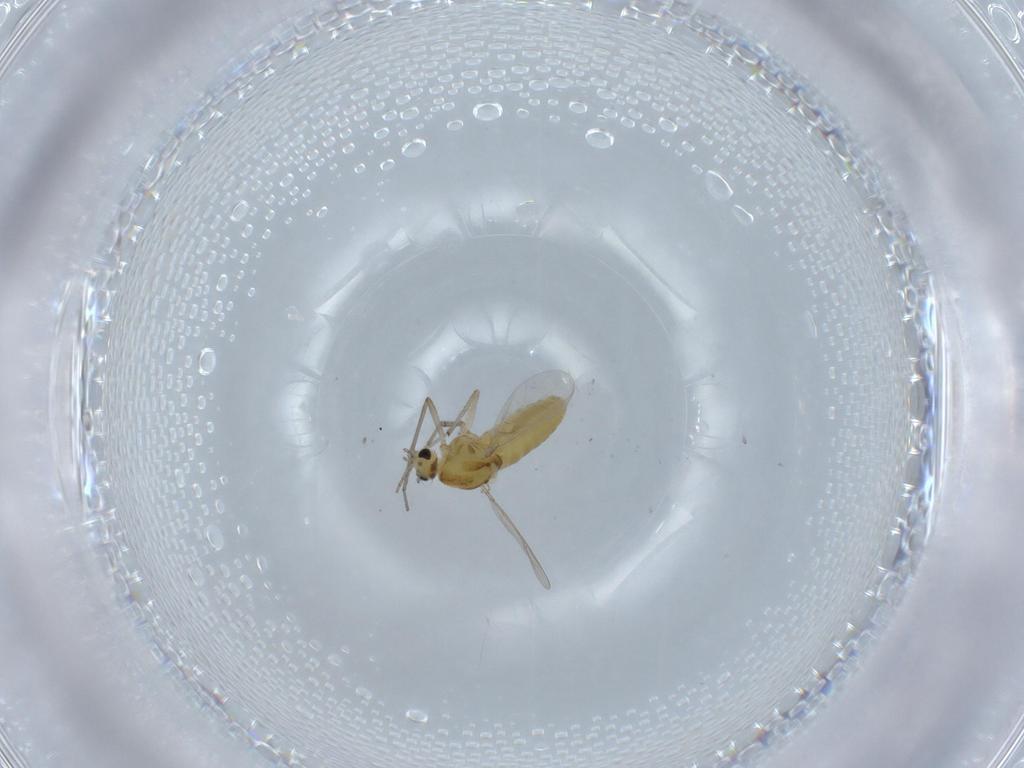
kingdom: Animalia
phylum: Arthropoda
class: Insecta
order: Diptera
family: Chironomidae
